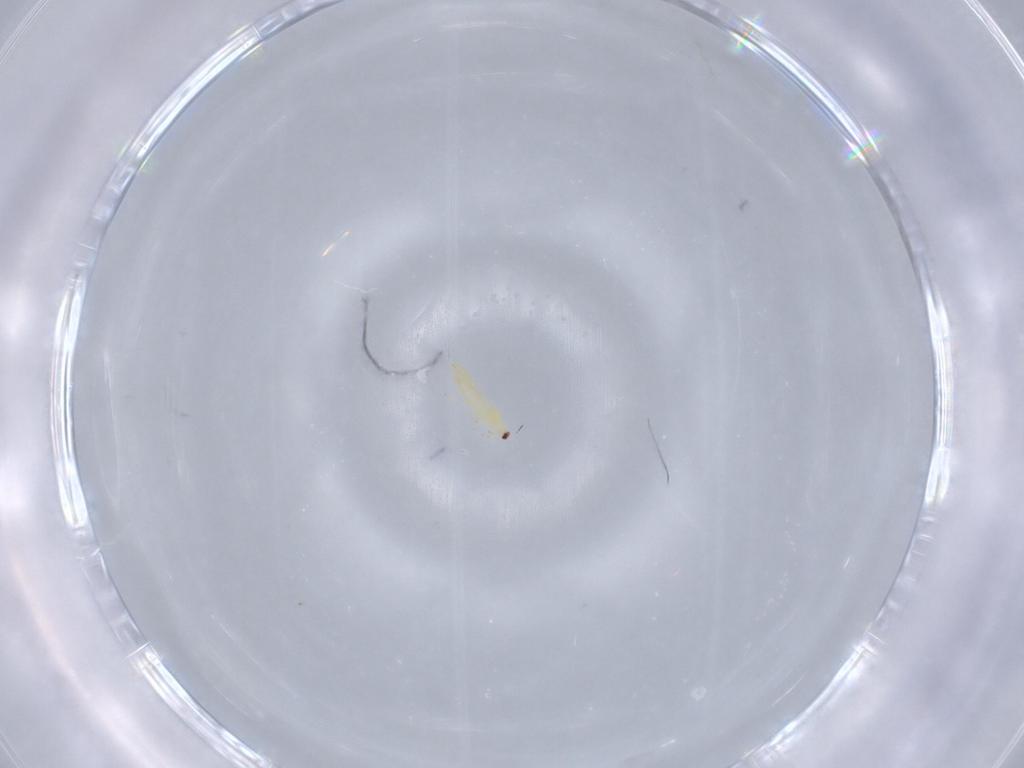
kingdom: Animalia
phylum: Arthropoda
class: Insecta
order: Thysanoptera
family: Thripidae
